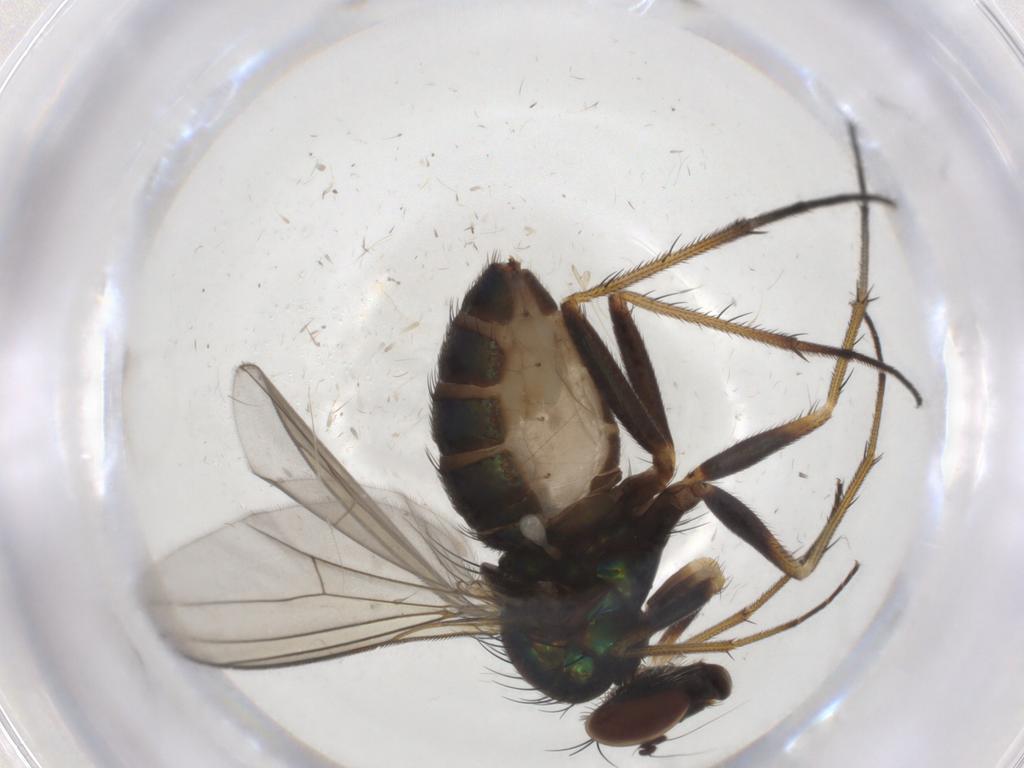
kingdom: Animalia
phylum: Arthropoda
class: Insecta
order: Diptera
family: Dolichopodidae
